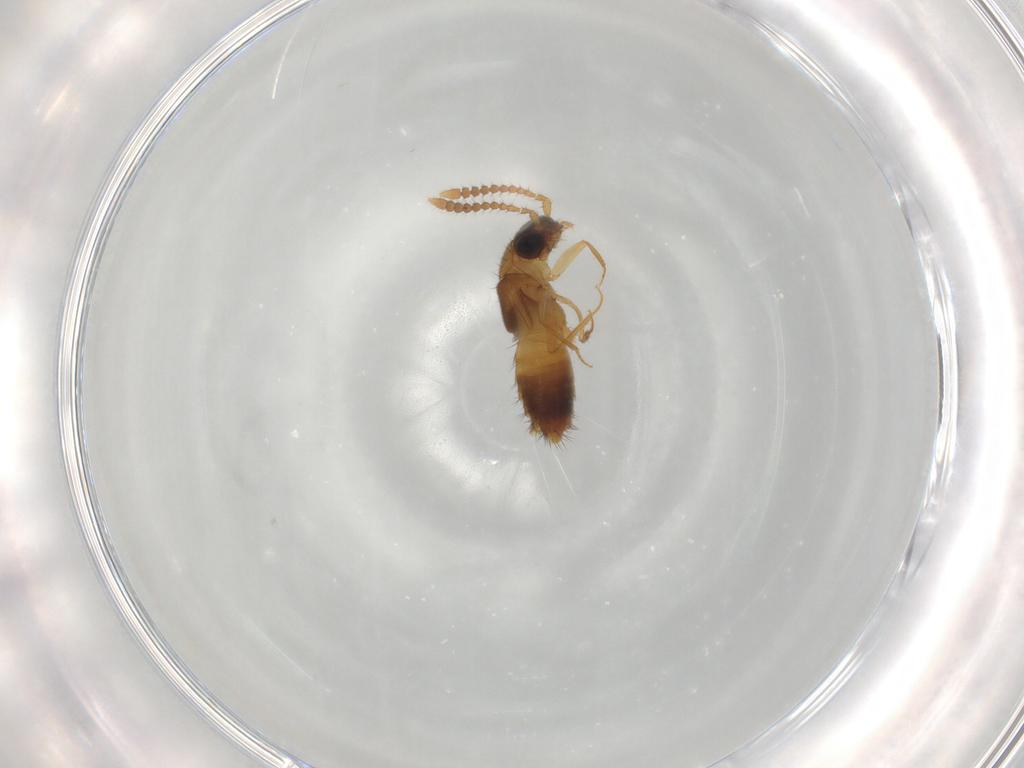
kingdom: Animalia
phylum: Arthropoda
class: Insecta
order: Coleoptera
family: Staphylinidae
